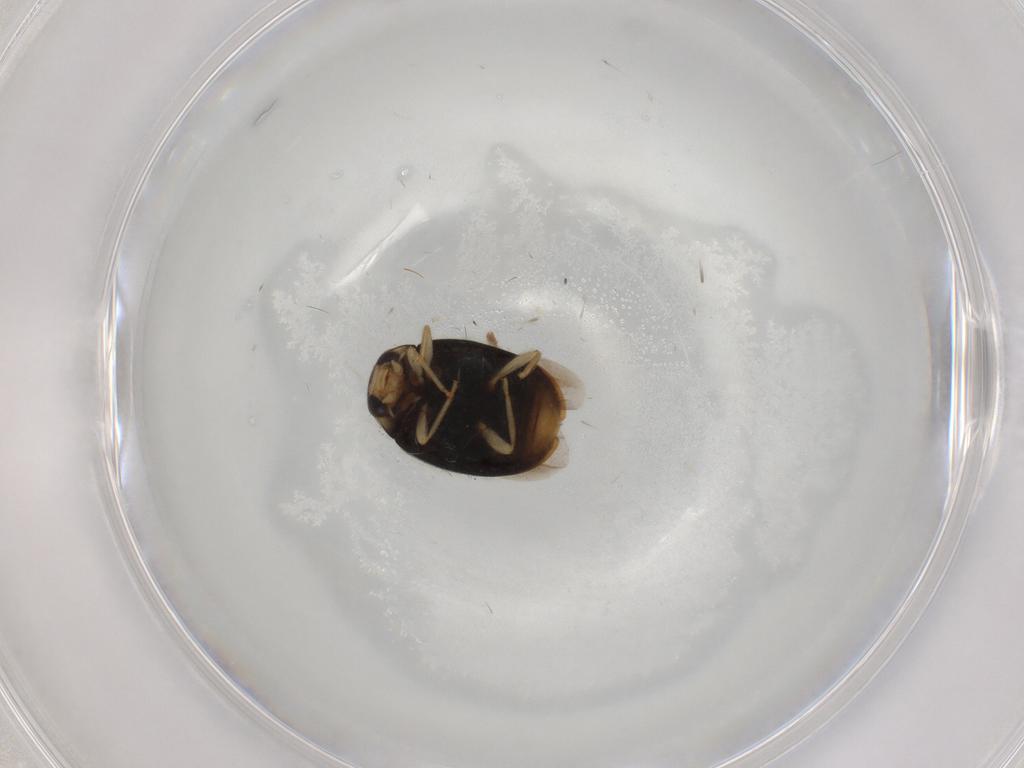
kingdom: Animalia
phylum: Arthropoda
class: Insecta
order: Coleoptera
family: Coccinellidae
